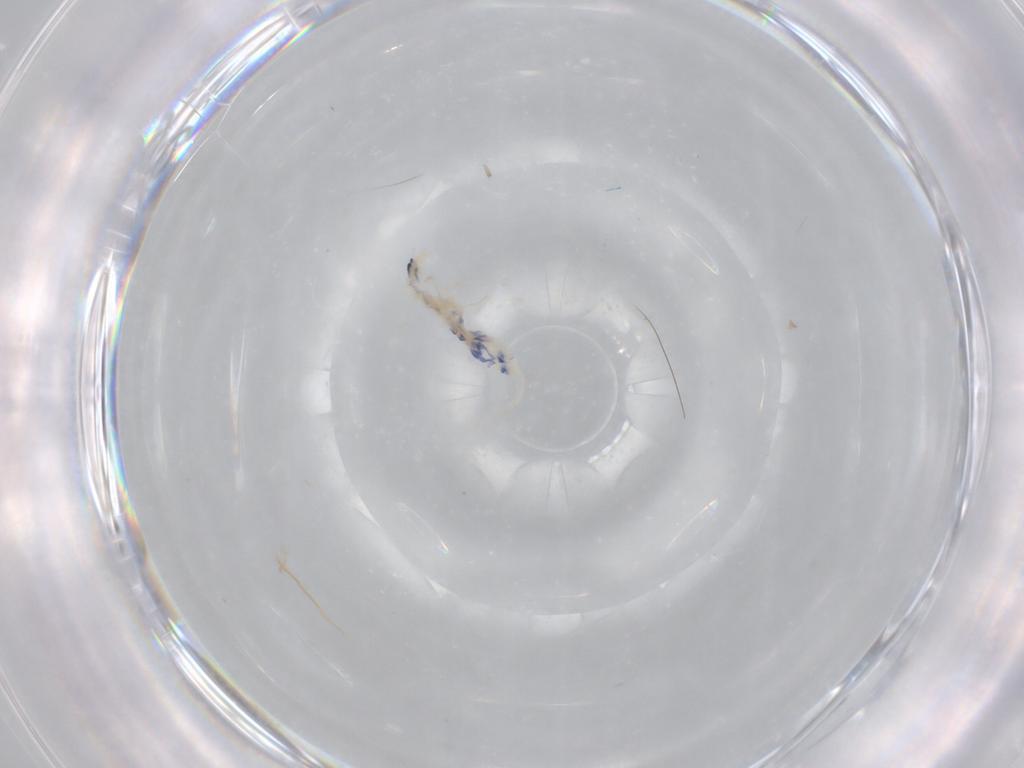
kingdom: Animalia
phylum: Arthropoda
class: Collembola
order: Entomobryomorpha
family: Entomobryidae
